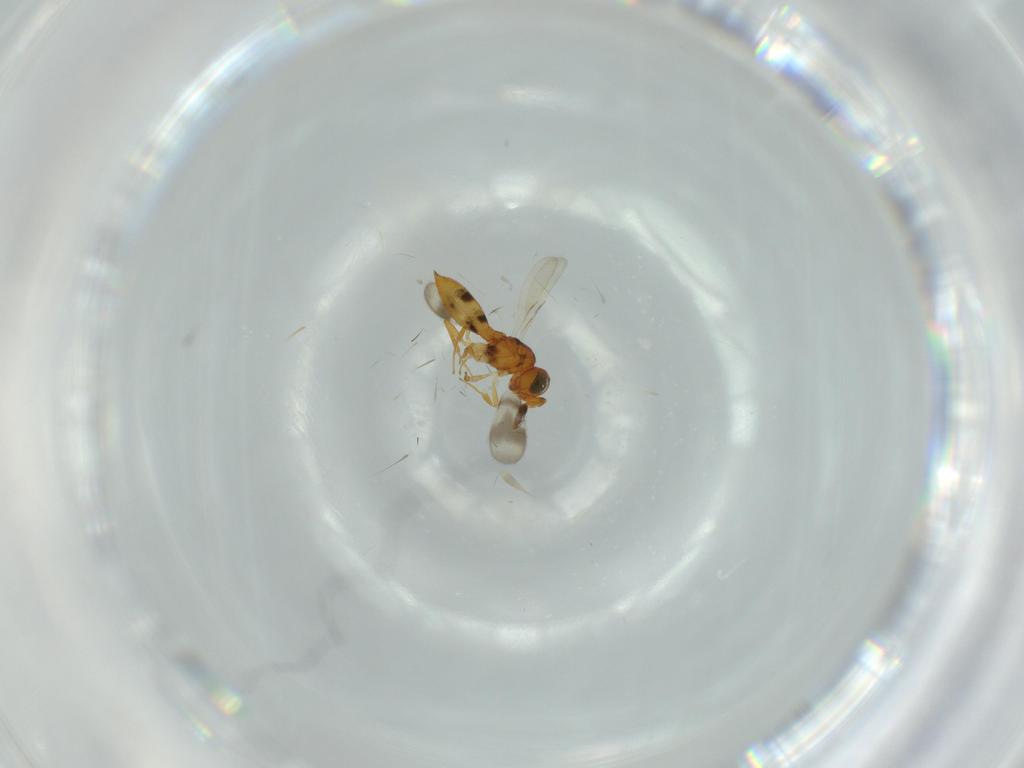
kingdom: Animalia
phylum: Arthropoda
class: Insecta
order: Hymenoptera
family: Scelionidae
